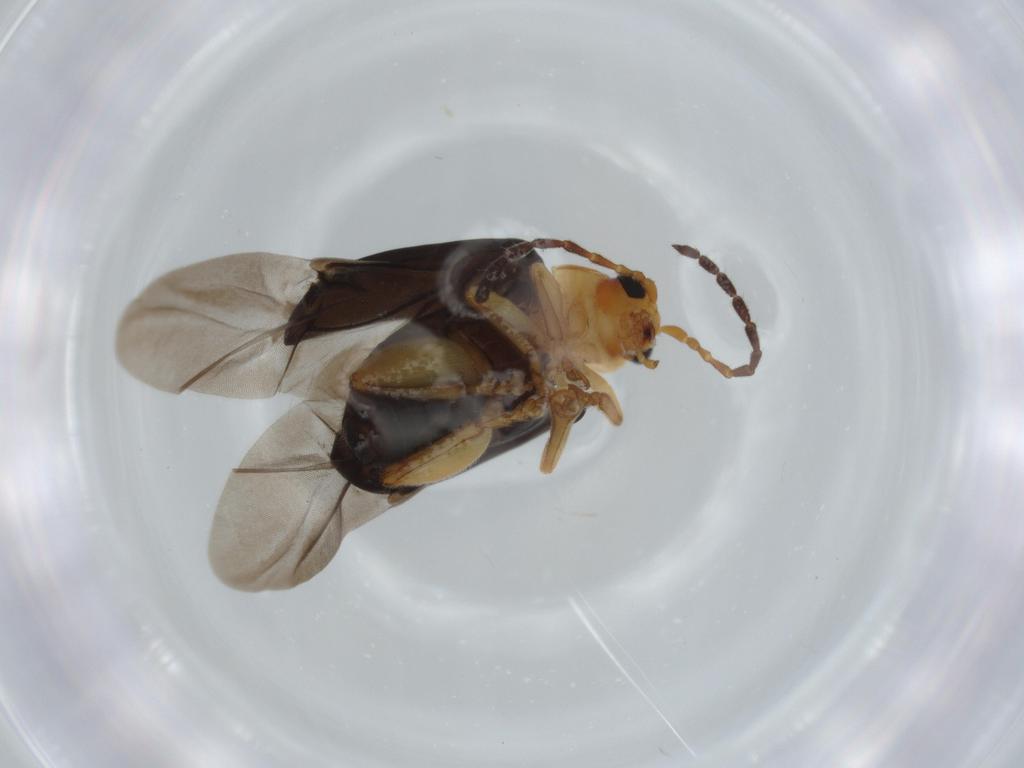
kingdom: Animalia
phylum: Arthropoda
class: Insecta
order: Coleoptera
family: Chrysomelidae
